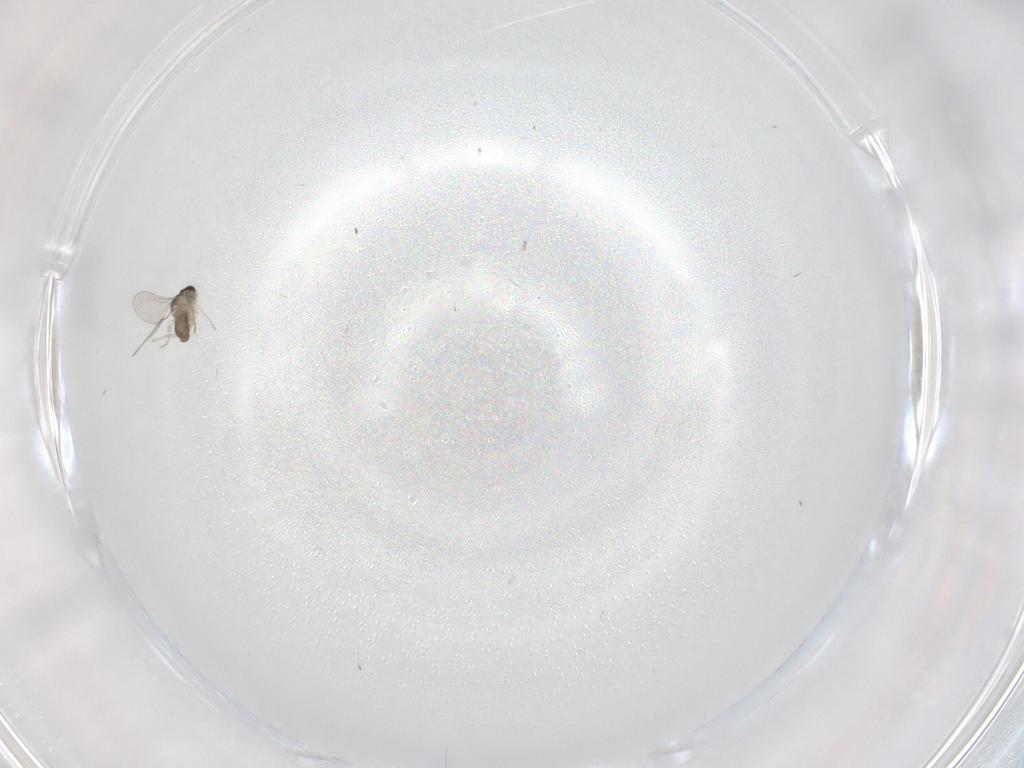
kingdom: Animalia
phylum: Arthropoda
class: Insecta
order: Diptera
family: Cecidomyiidae
